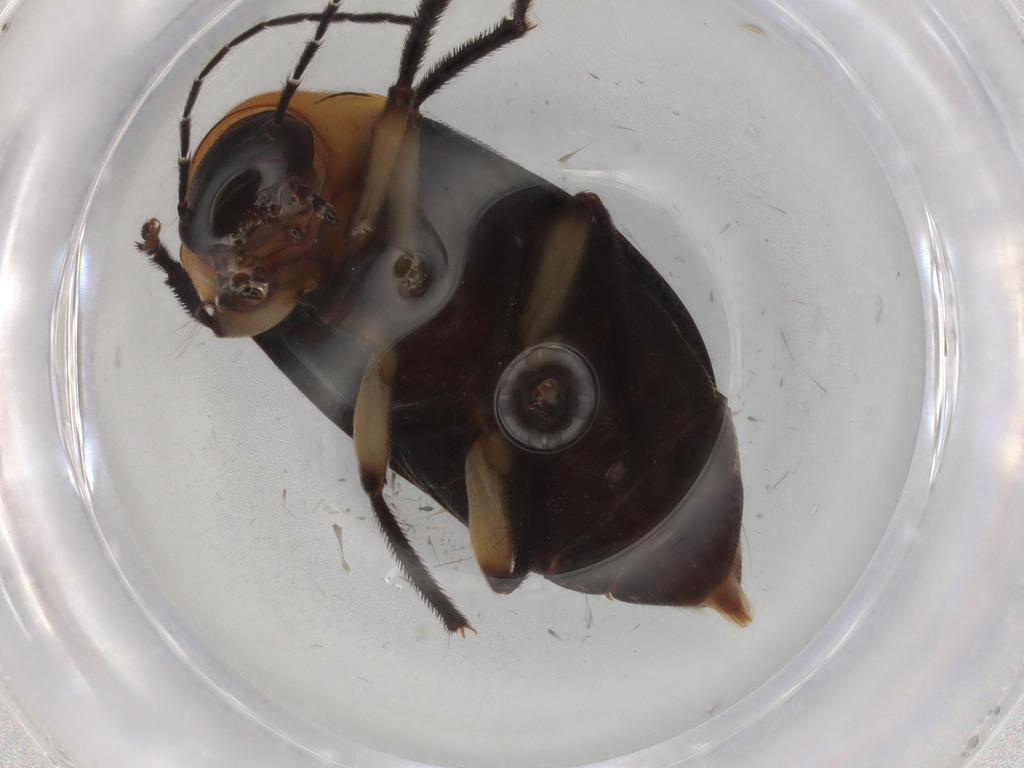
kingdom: Animalia
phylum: Arthropoda
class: Insecta
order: Coleoptera
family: Ptilodactylidae
